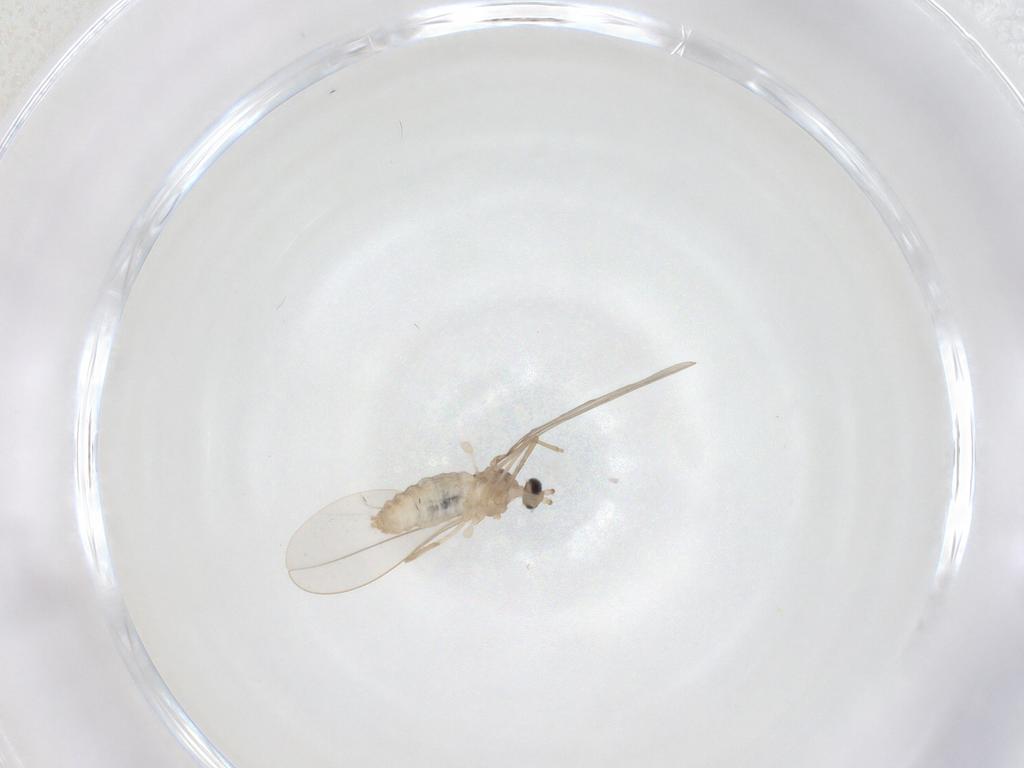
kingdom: Animalia
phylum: Arthropoda
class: Insecta
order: Diptera
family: Cecidomyiidae
